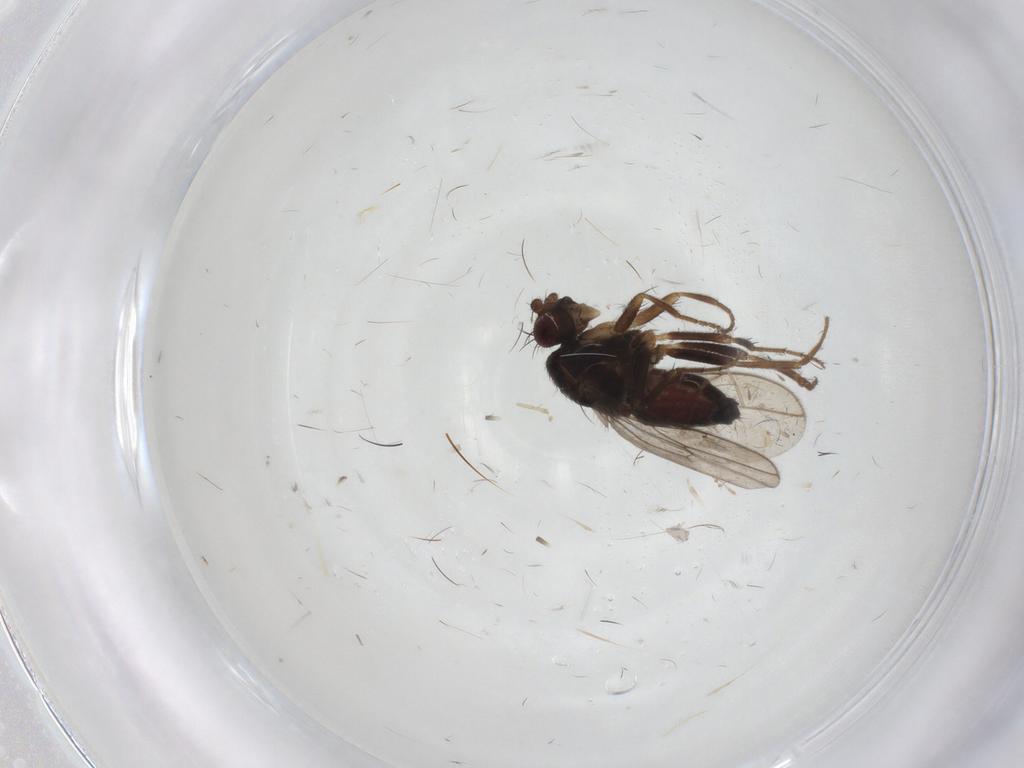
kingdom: Animalia
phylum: Arthropoda
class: Insecta
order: Diptera
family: Sphaeroceridae
